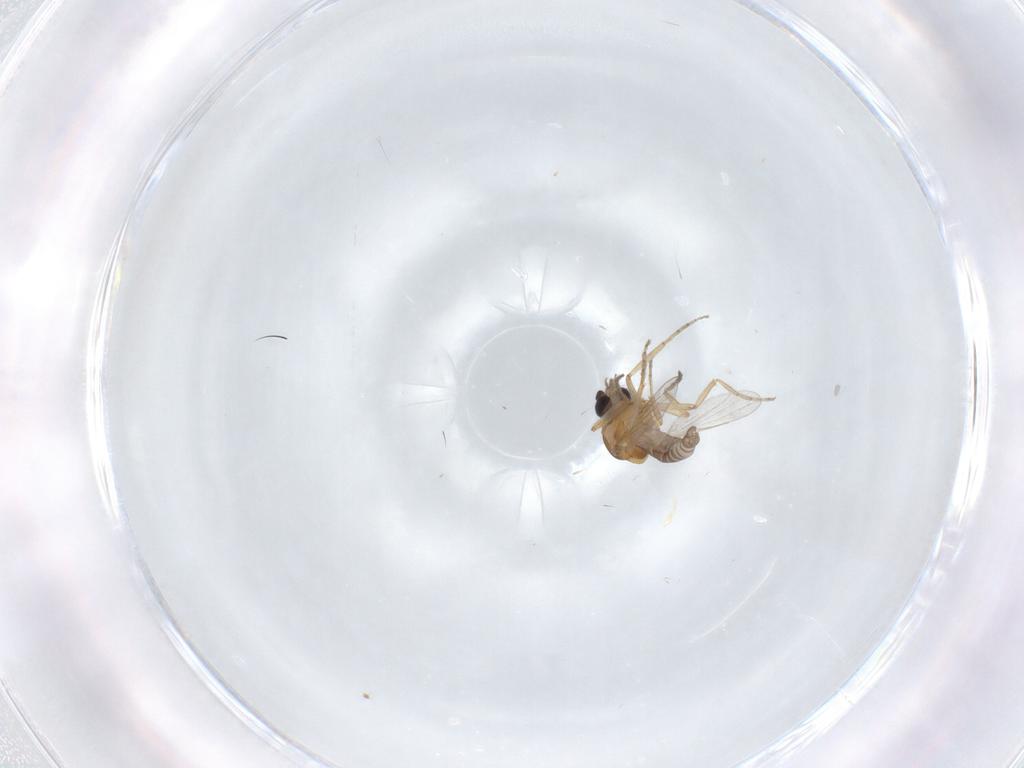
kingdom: Animalia
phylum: Arthropoda
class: Insecta
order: Diptera
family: Ceratopogonidae
